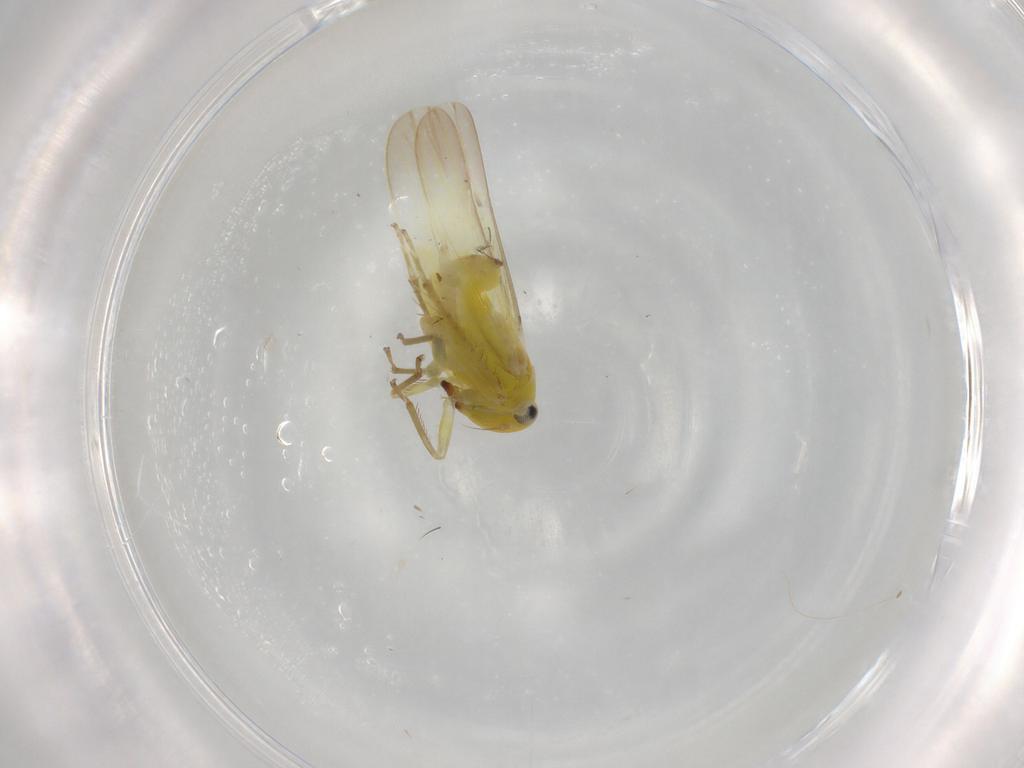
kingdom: Animalia
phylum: Arthropoda
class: Insecta
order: Hemiptera
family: Cicadellidae
